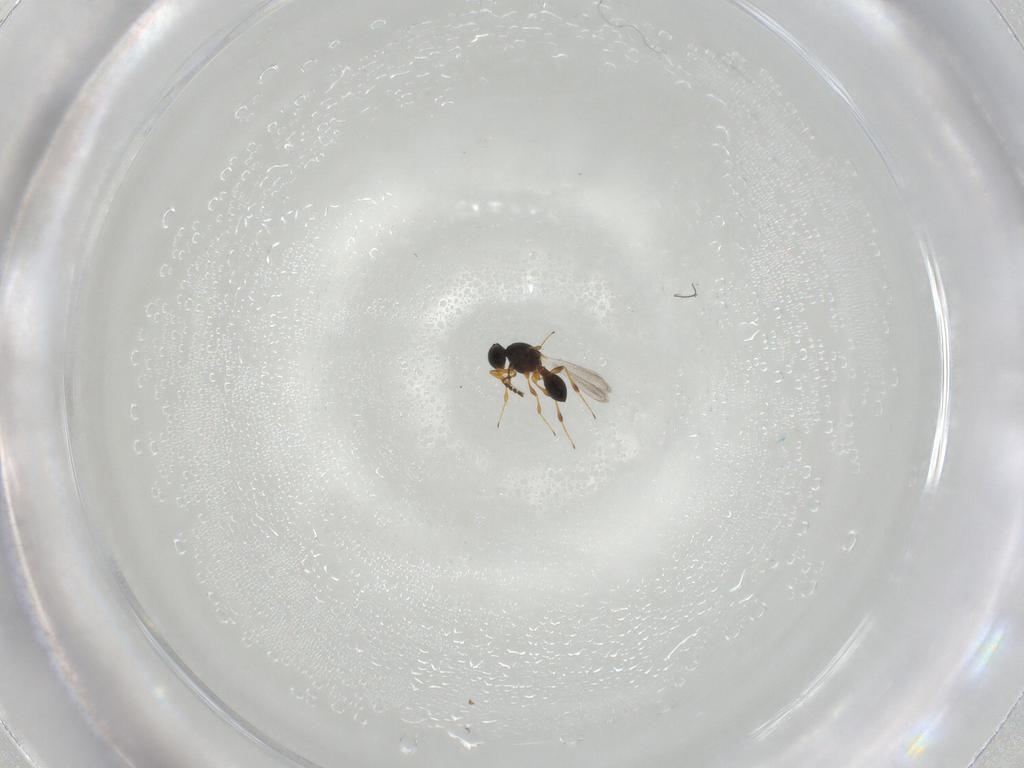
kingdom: Animalia
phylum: Arthropoda
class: Insecta
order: Hymenoptera
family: Platygastridae
